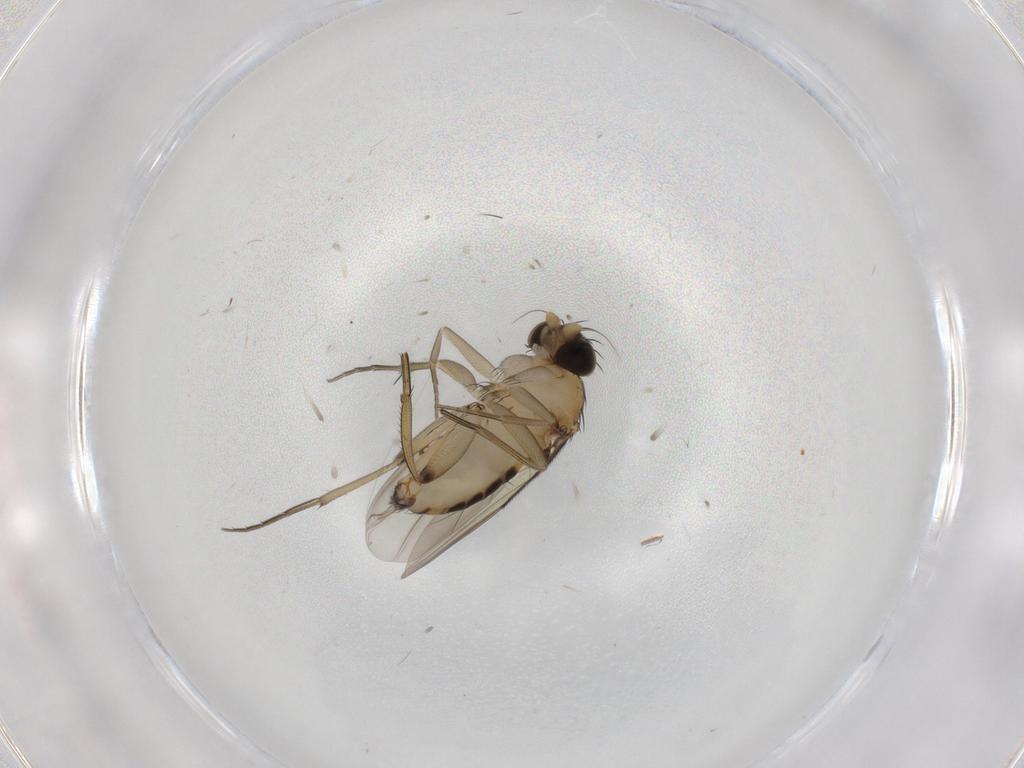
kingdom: Animalia
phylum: Arthropoda
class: Insecta
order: Diptera
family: Phoridae
